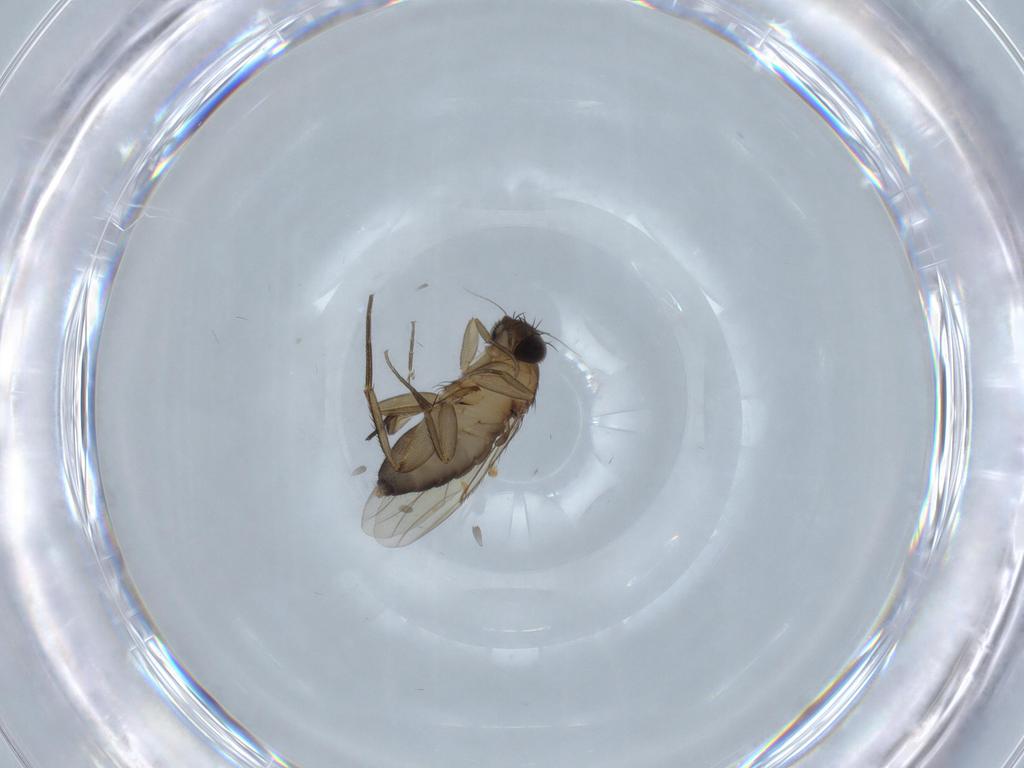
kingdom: Animalia
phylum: Arthropoda
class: Insecta
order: Diptera
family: Phoridae
